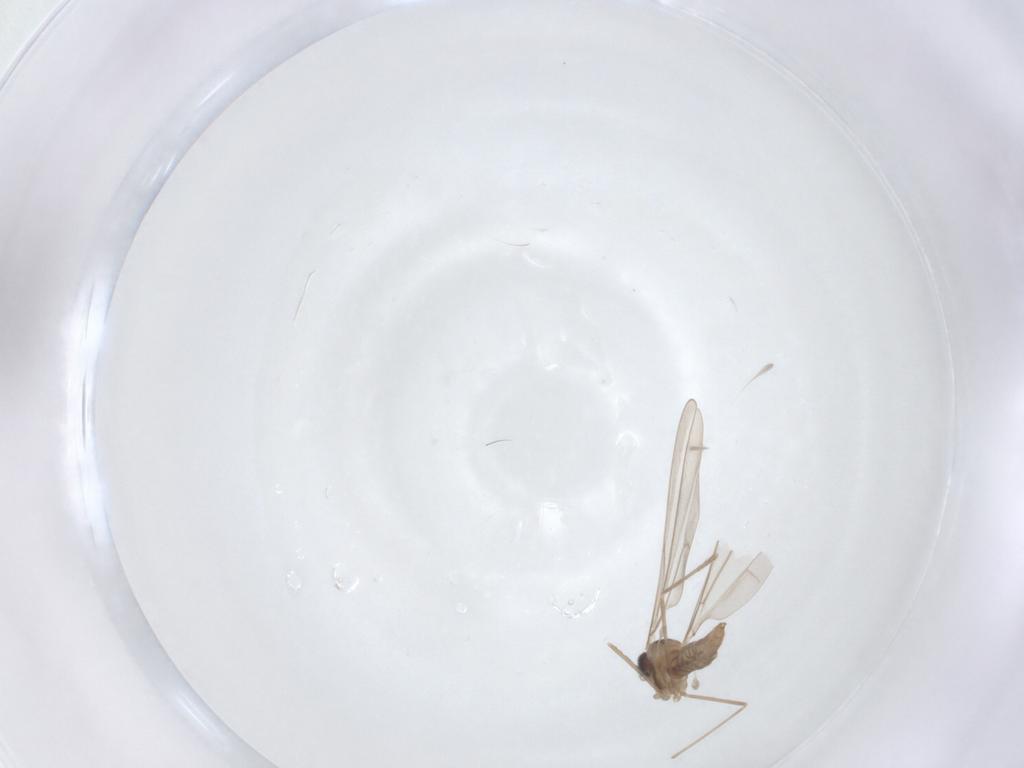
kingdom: Animalia
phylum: Arthropoda
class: Insecta
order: Diptera
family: Cecidomyiidae
